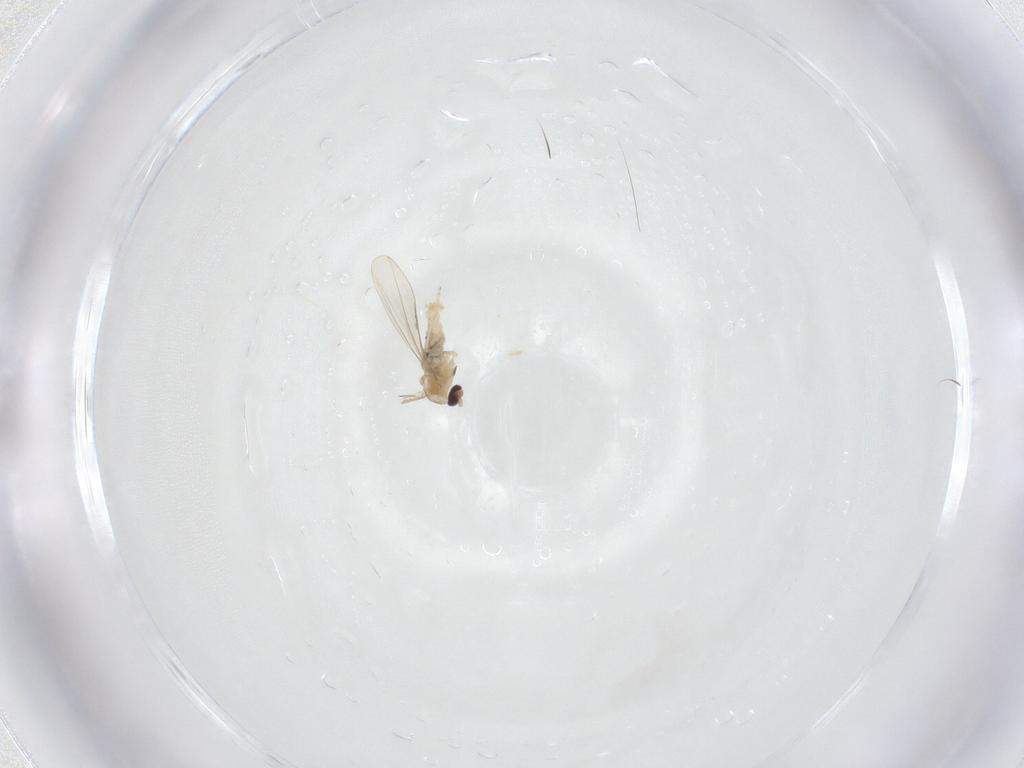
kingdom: Animalia
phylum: Arthropoda
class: Insecta
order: Diptera
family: Cecidomyiidae
